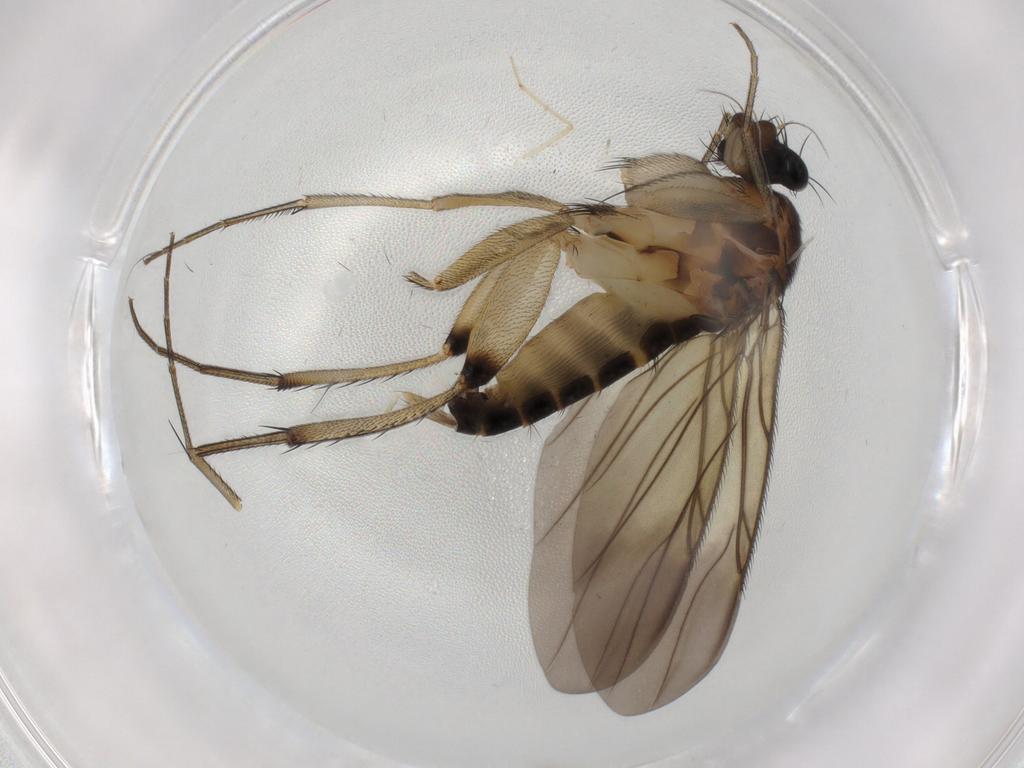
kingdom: Animalia
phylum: Arthropoda
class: Insecta
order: Diptera
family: Phoridae
